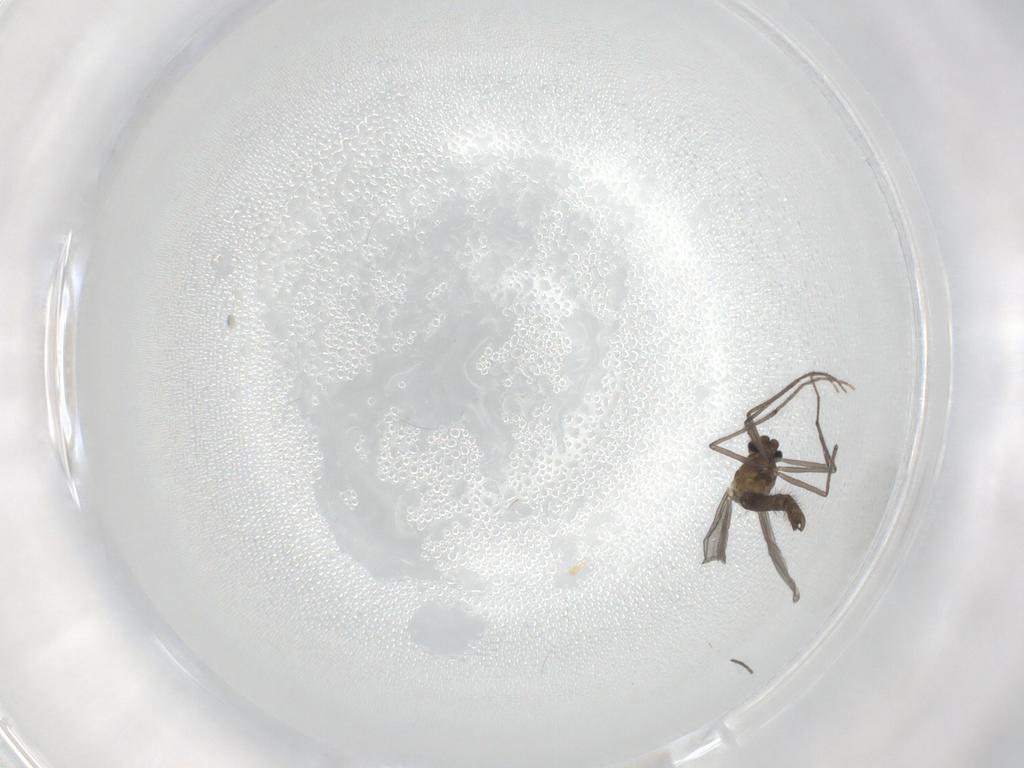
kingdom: Animalia
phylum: Arthropoda
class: Insecta
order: Diptera
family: Chironomidae
